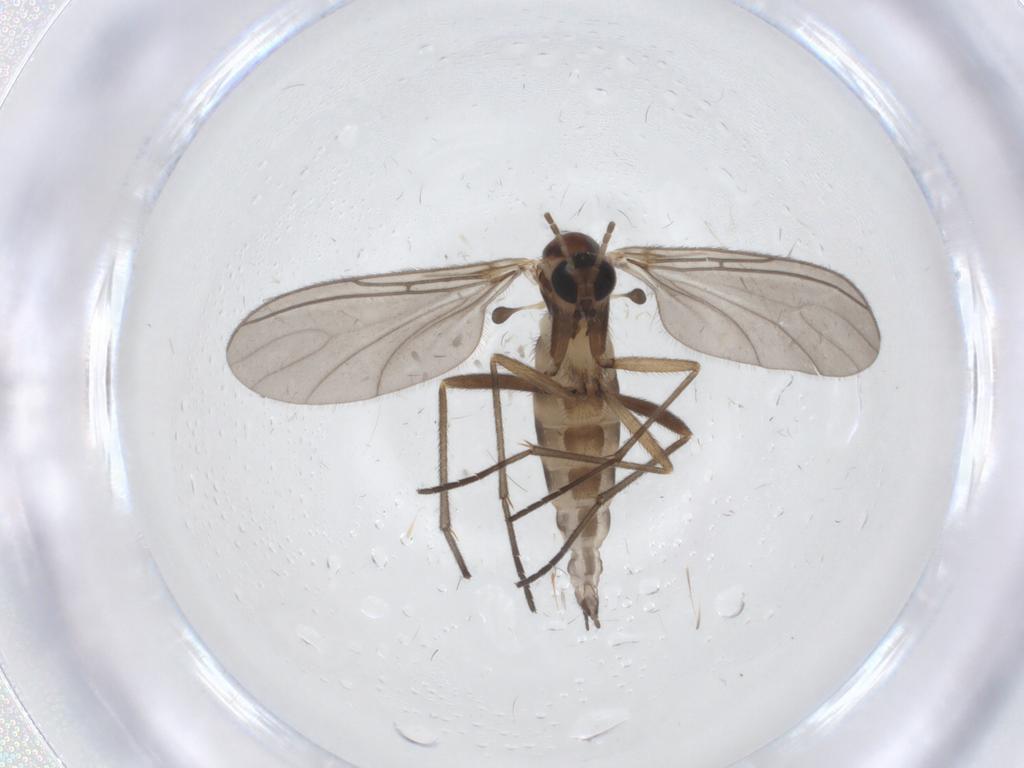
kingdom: Animalia
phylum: Arthropoda
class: Insecta
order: Diptera
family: Sciaridae
